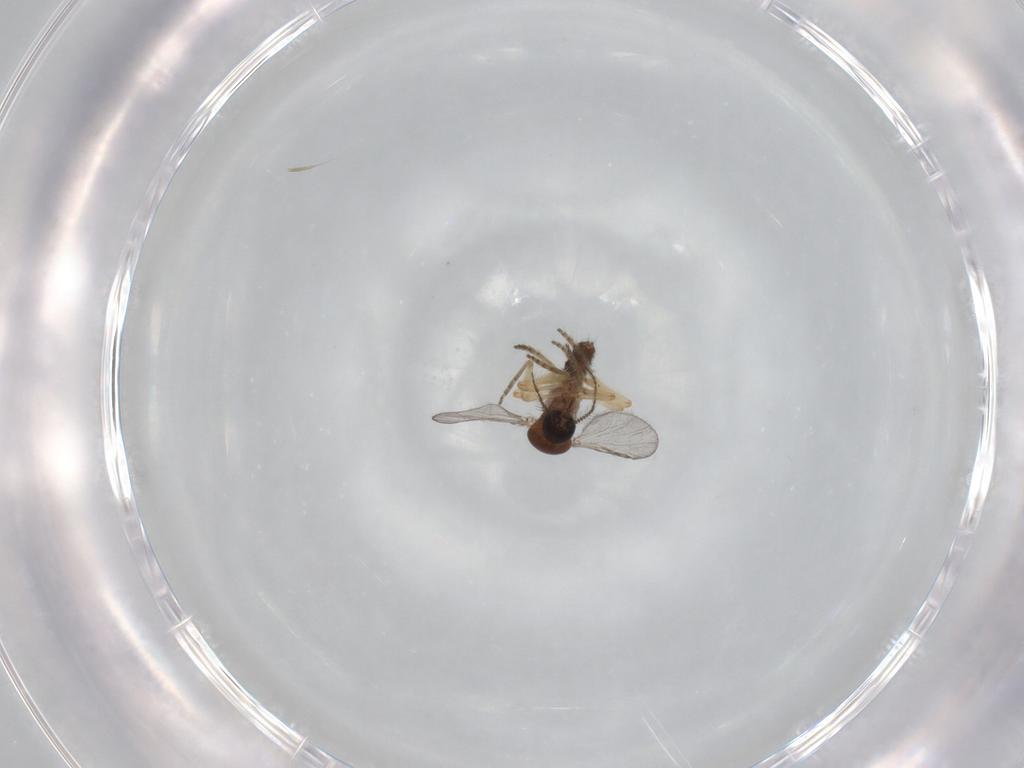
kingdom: Animalia
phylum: Arthropoda
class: Insecta
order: Diptera
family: Ceratopogonidae
